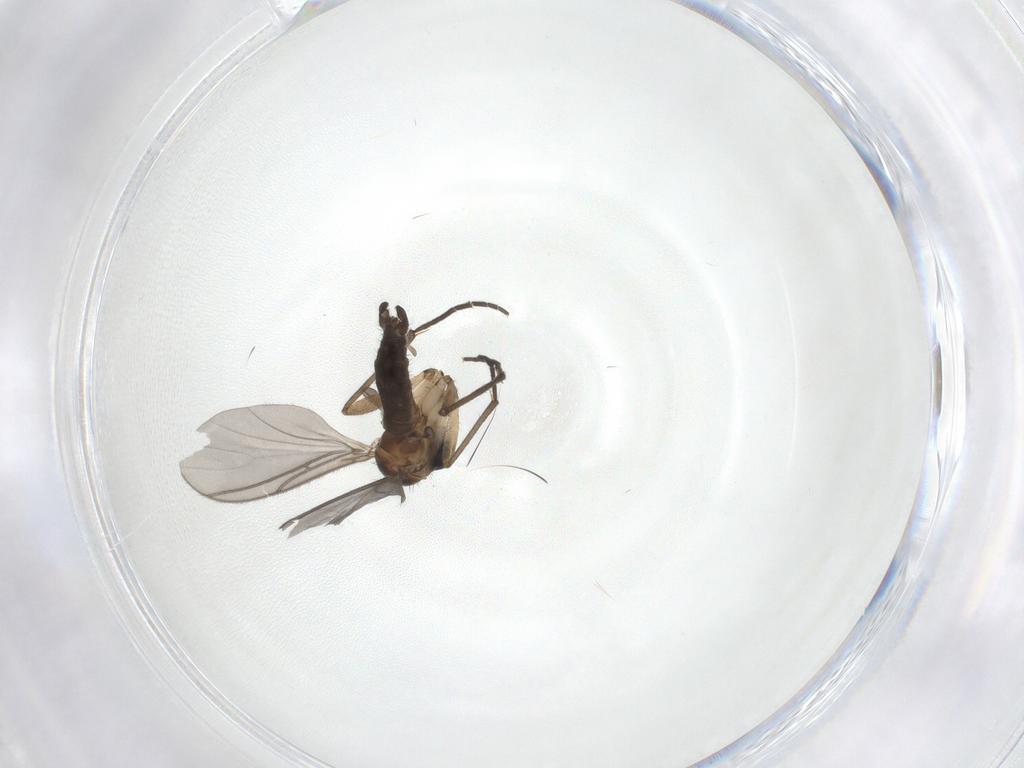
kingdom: Animalia
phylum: Arthropoda
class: Insecta
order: Diptera
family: Sciaridae
